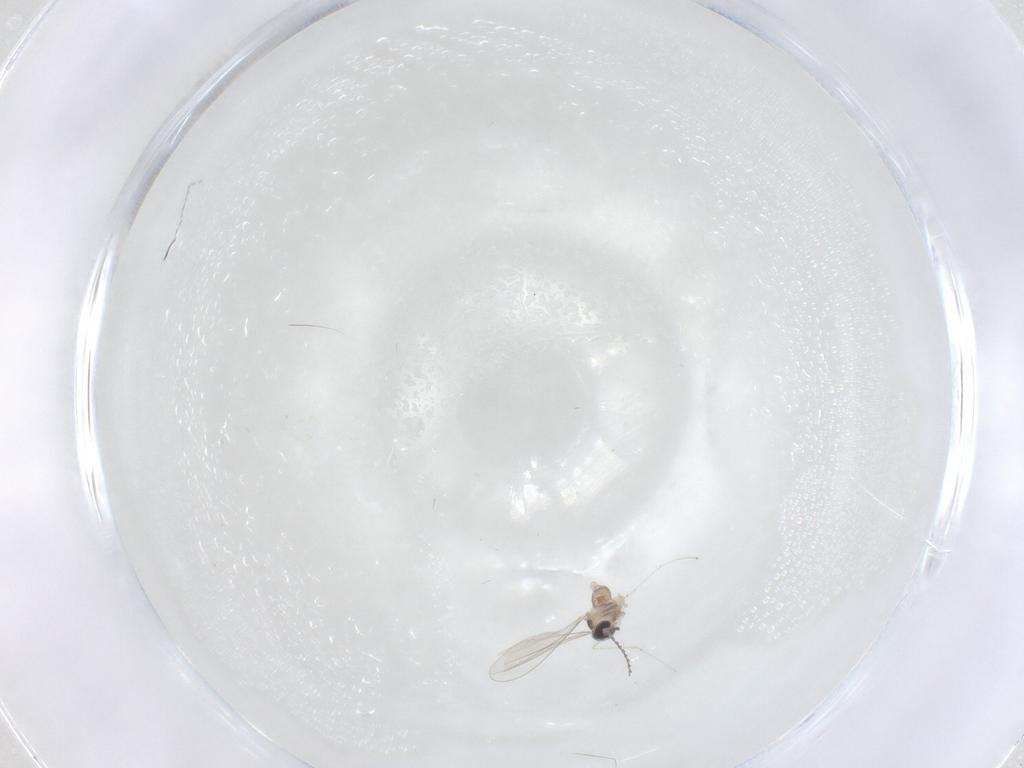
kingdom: Animalia
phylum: Arthropoda
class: Insecta
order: Diptera
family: Cecidomyiidae
